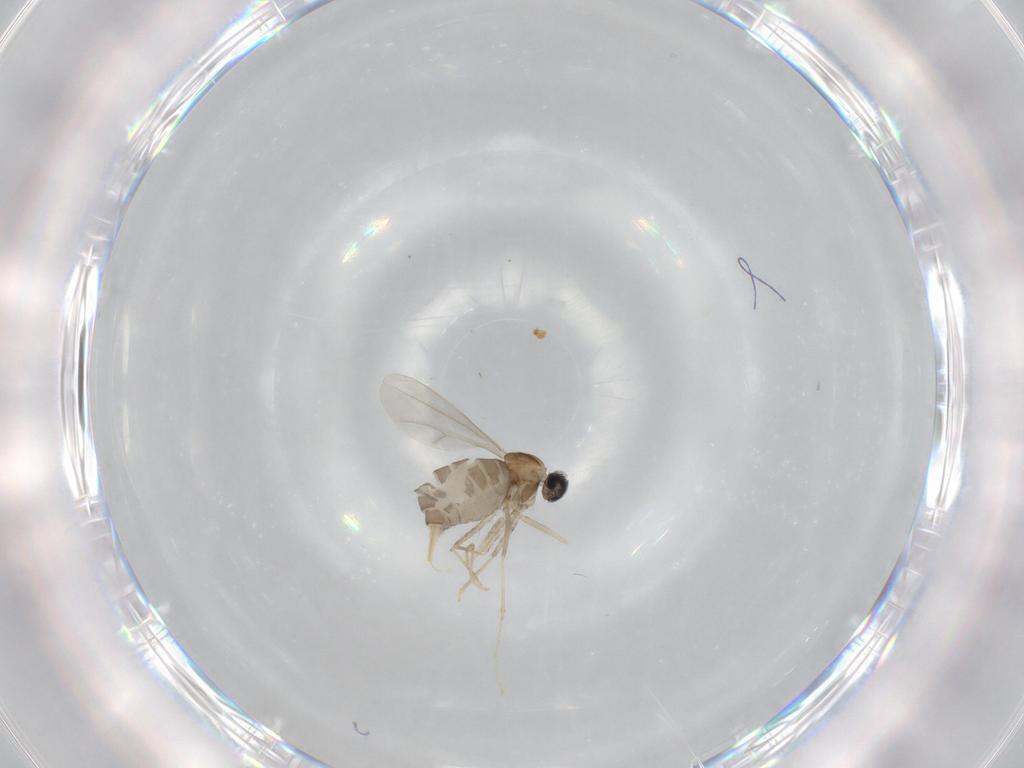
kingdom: Animalia
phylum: Arthropoda
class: Insecta
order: Diptera
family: Cecidomyiidae
